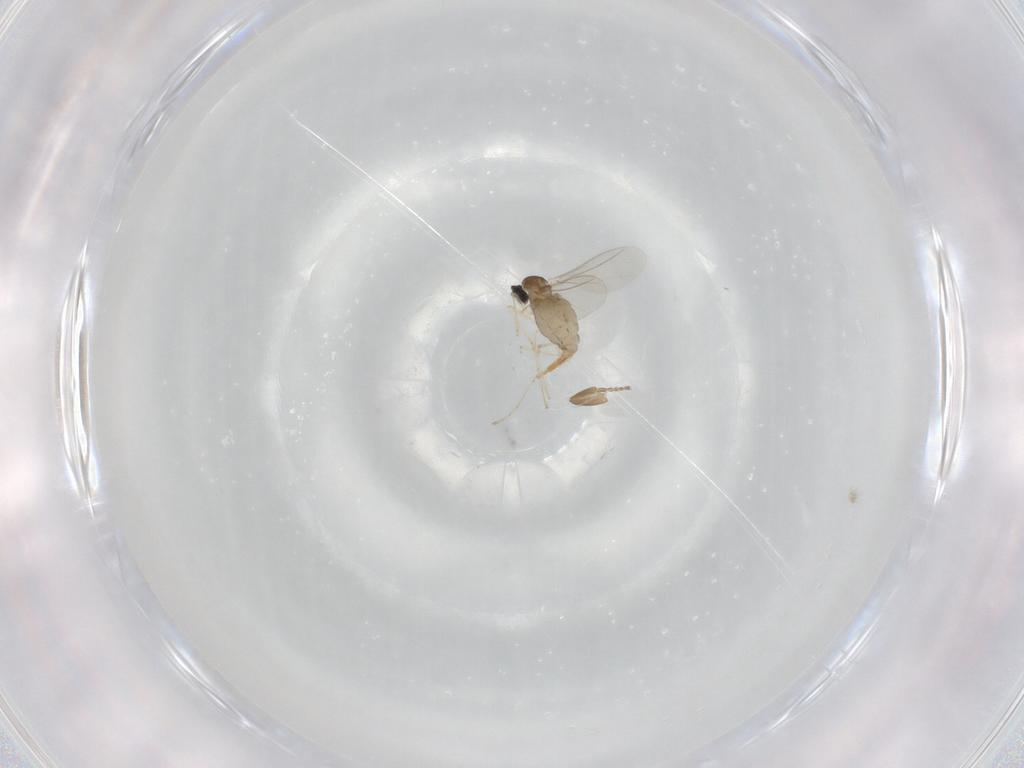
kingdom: Animalia
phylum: Arthropoda
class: Insecta
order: Diptera
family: Cecidomyiidae
